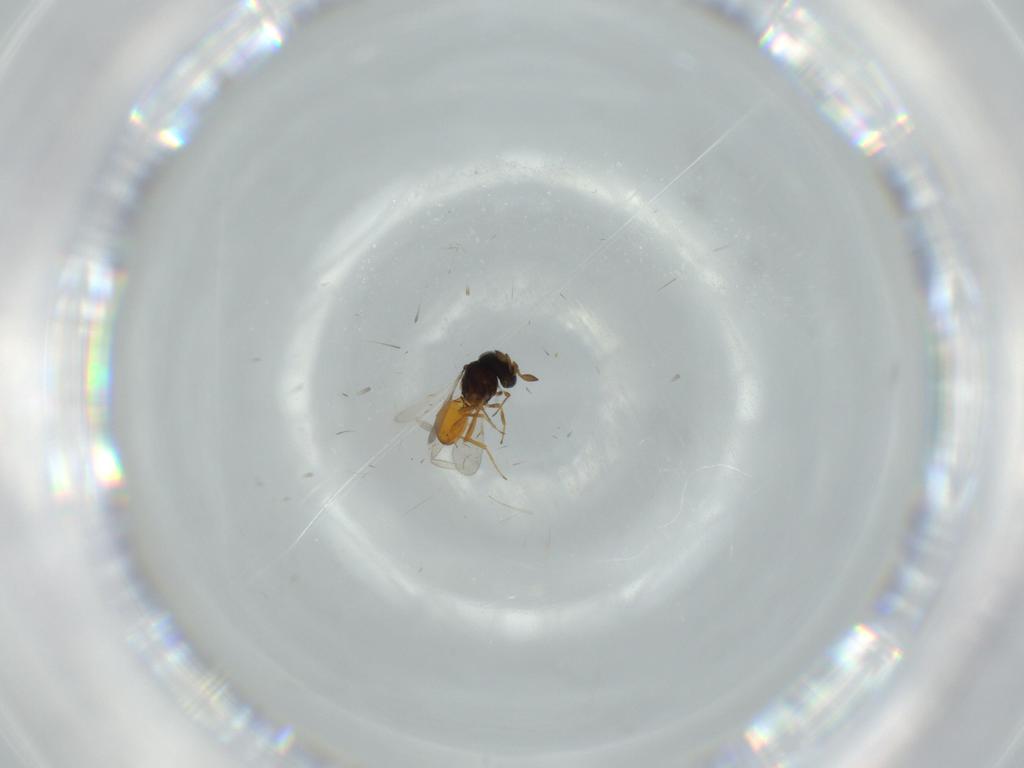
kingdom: Animalia
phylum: Arthropoda
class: Insecta
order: Hymenoptera
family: Scelionidae
